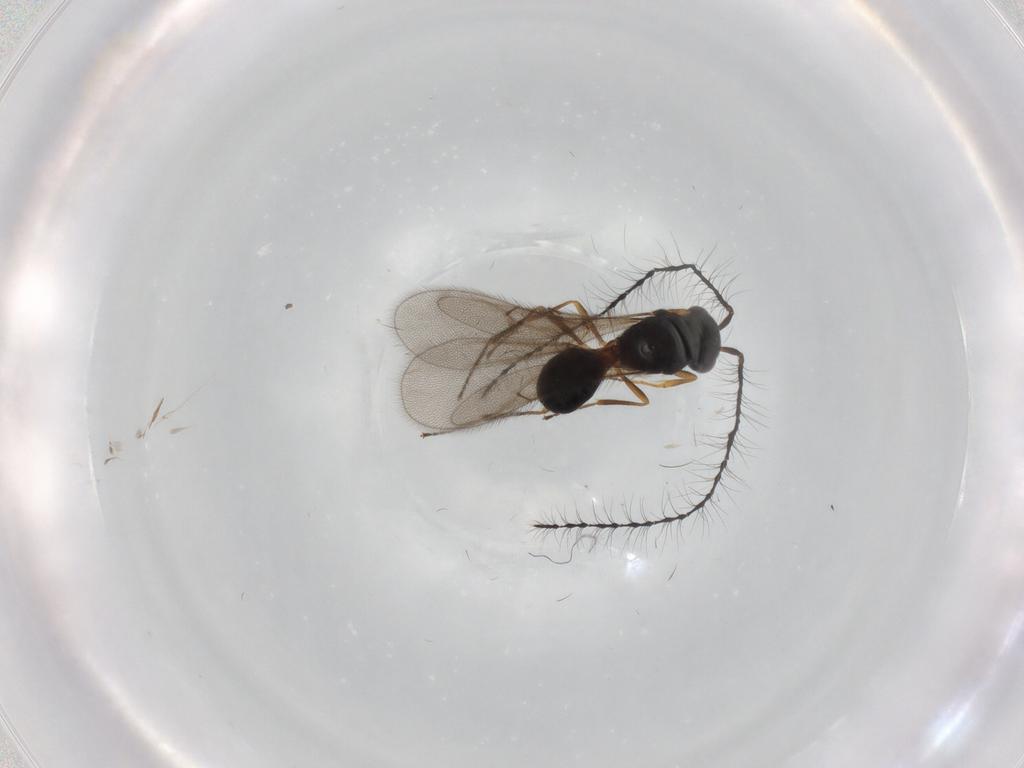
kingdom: Animalia
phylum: Arthropoda
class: Insecta
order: Hymenoptera
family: Scelionidae
